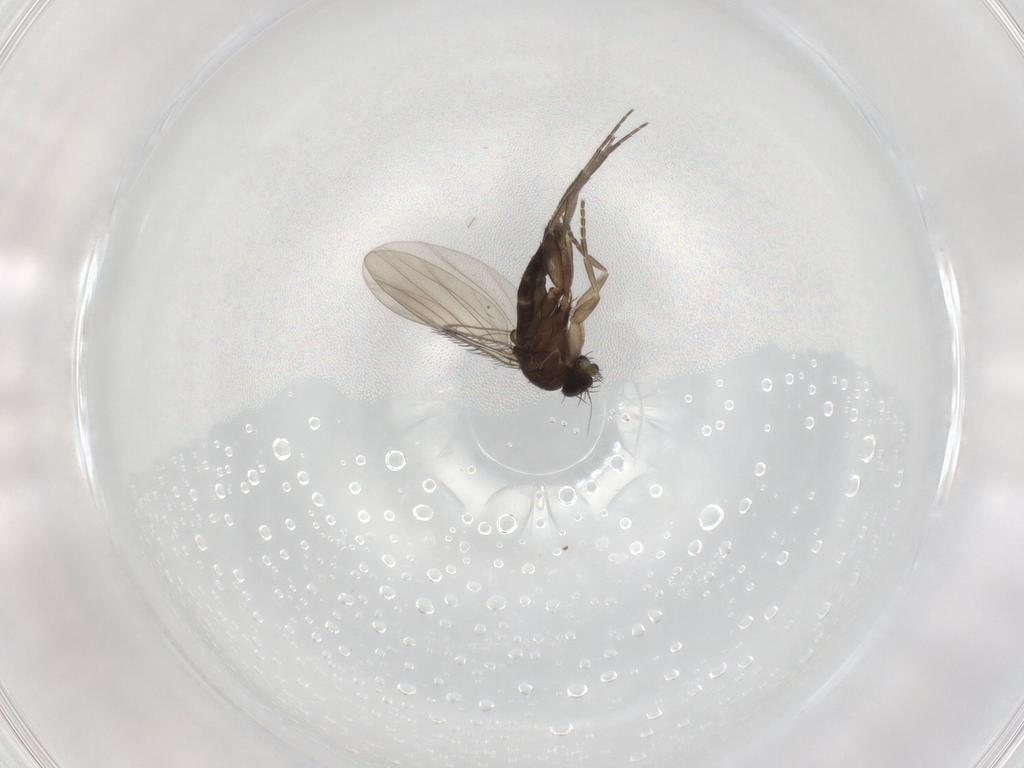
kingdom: Animalia
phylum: Arthropoda
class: Insecta
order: Diptera
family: Phoridae
